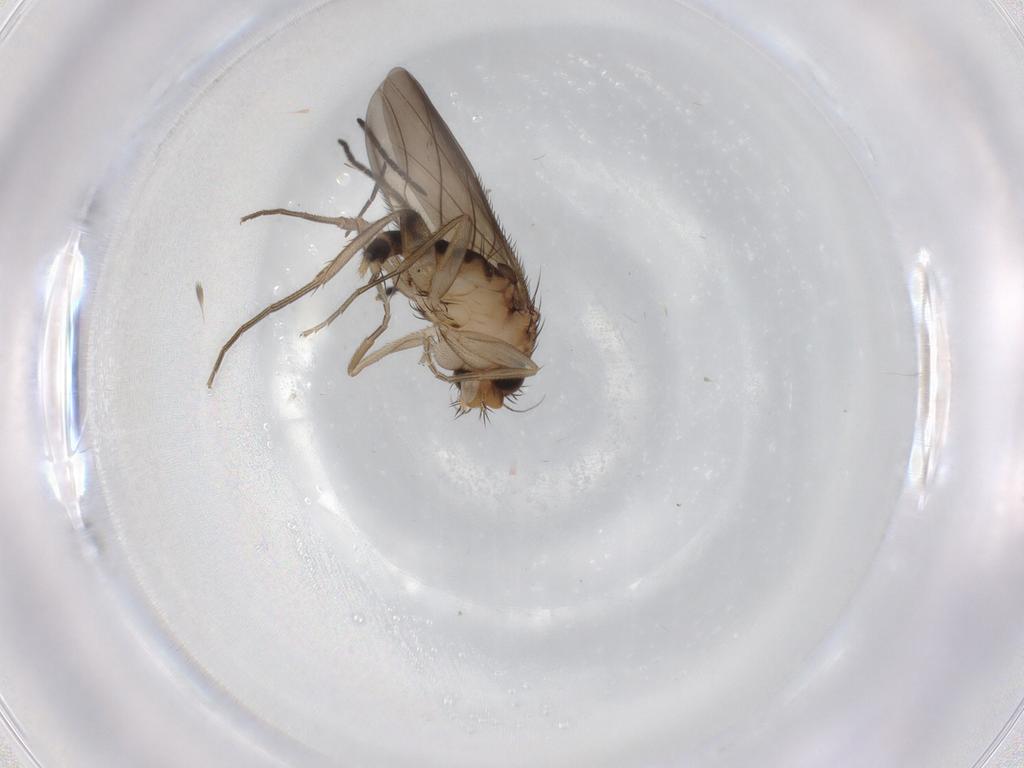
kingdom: Animalia
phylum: Arthropoda
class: Insecta
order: Diptera
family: Phoridae
